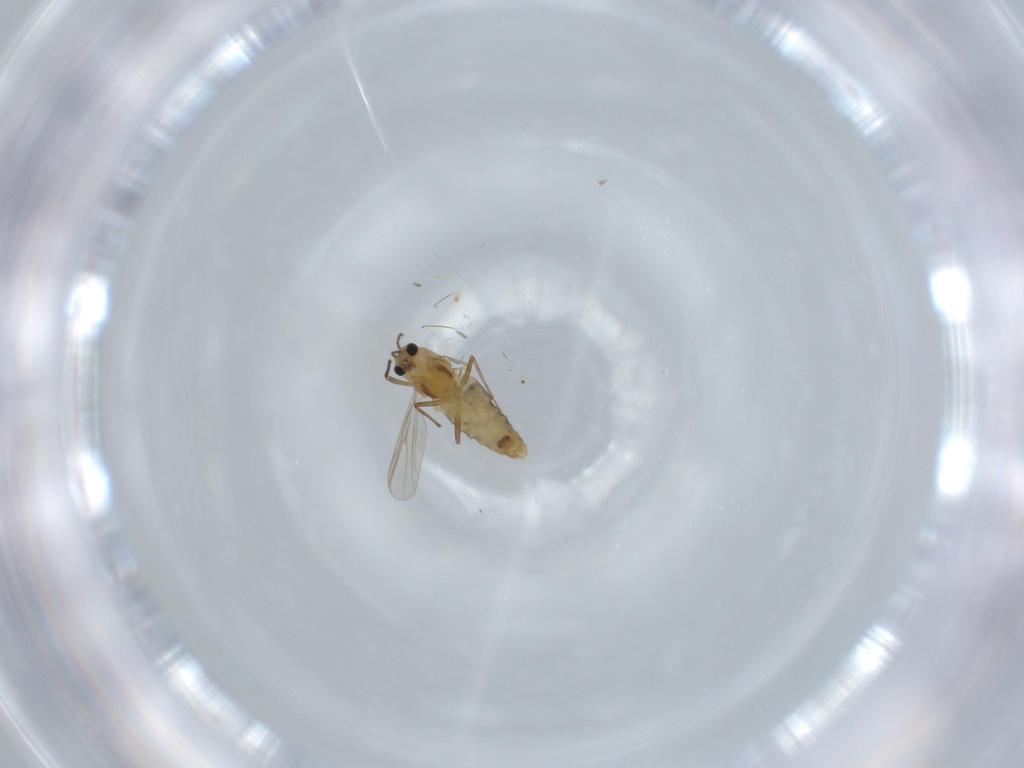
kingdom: Animalia
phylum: Arthropoda
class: Insecta
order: Diptera
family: Chironomidae
